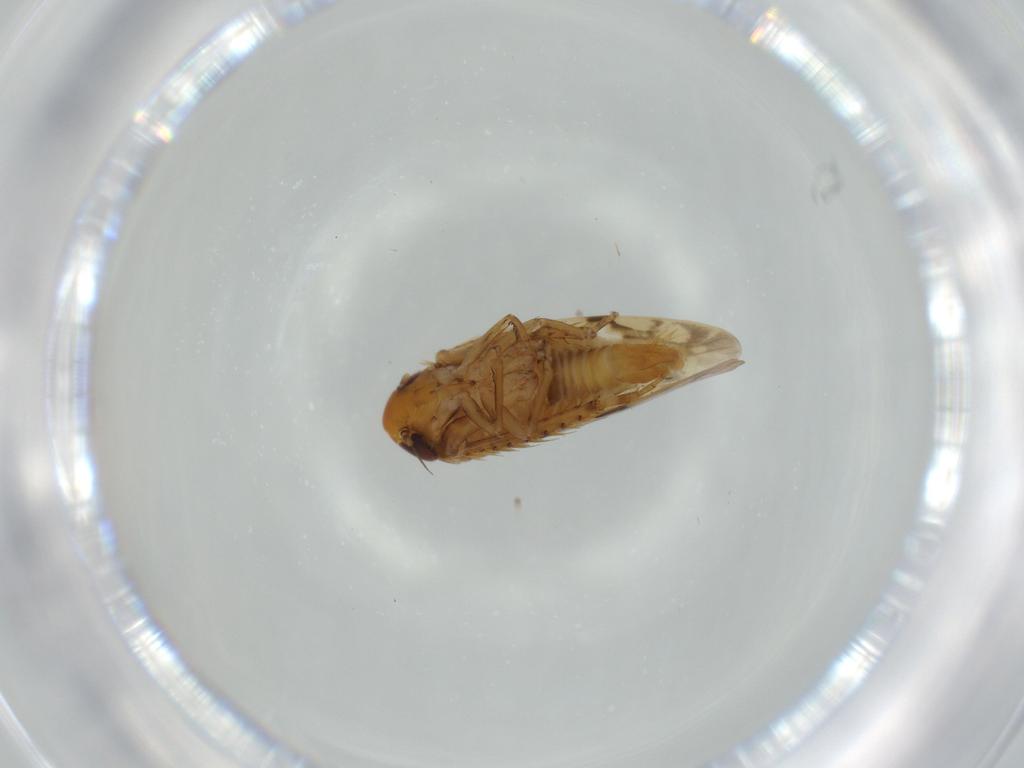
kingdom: Animalia
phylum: Arthropoda
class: Insecta
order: Hemiptera
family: Cicadellidae
